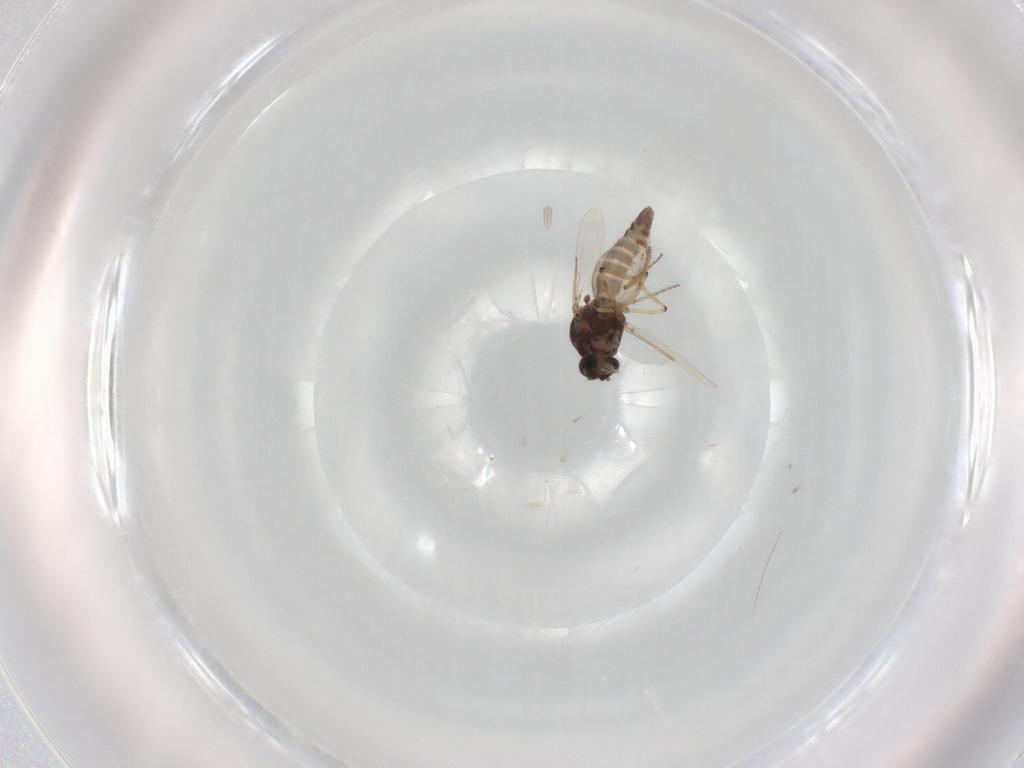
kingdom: Animalia
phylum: Arthropoda
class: Insecta
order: Diptera
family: Ceratopogonidae
